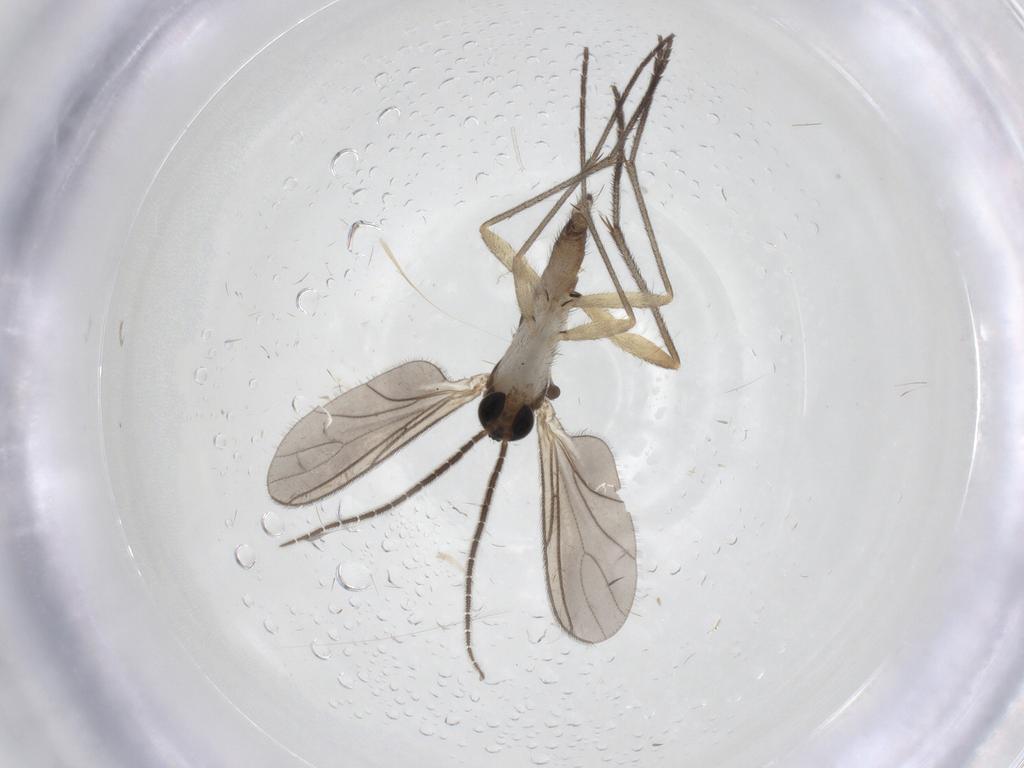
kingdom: Animalia
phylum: Arthropoda
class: Insecta
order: Diptera
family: Sciaridae
